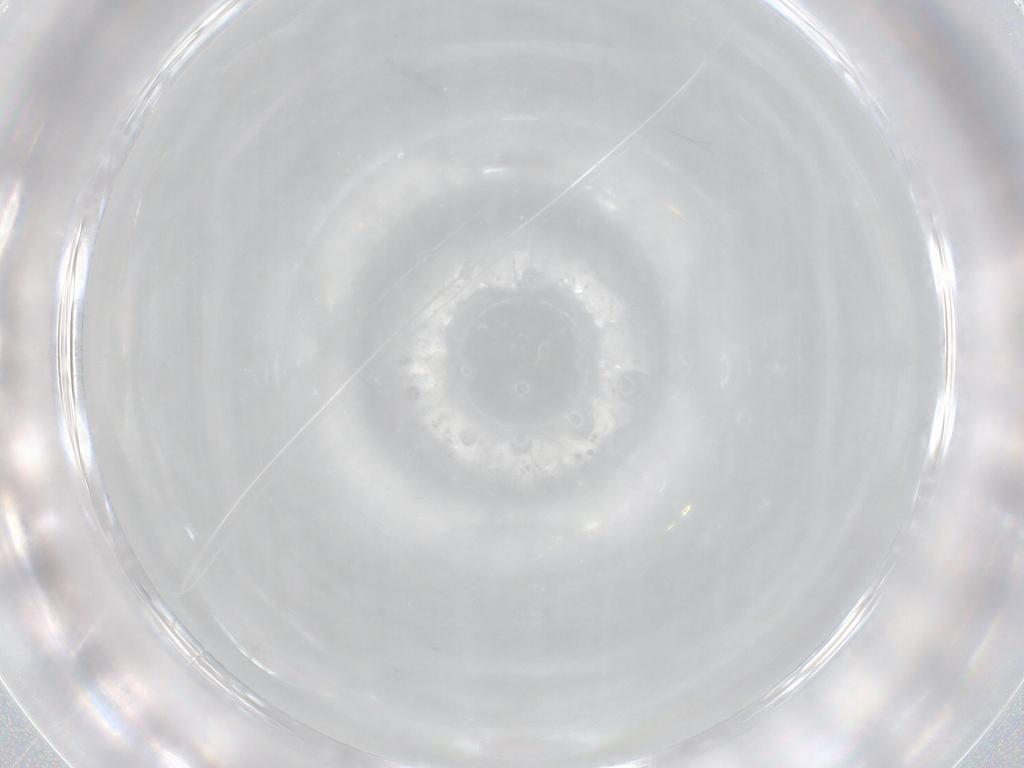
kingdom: Animalia
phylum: Arthropoda
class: Insecta
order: Diptera
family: Chironomidae
